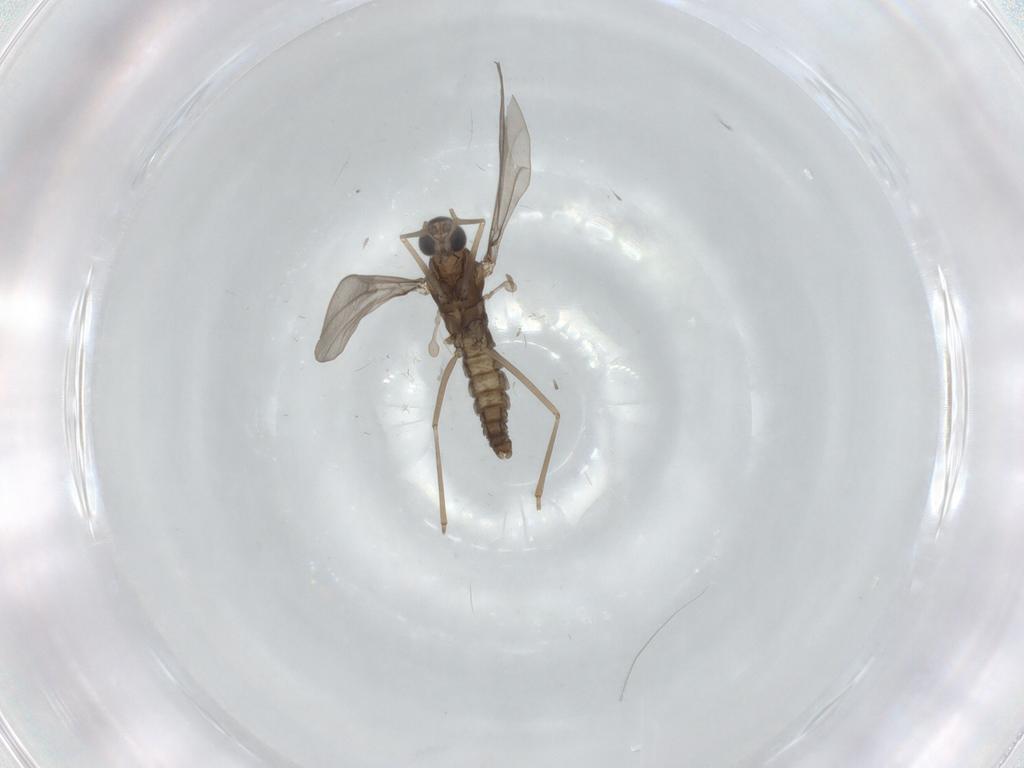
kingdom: Animalia
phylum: Arthropoda
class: Insecta
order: Diptera
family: Cecidomyiidae
